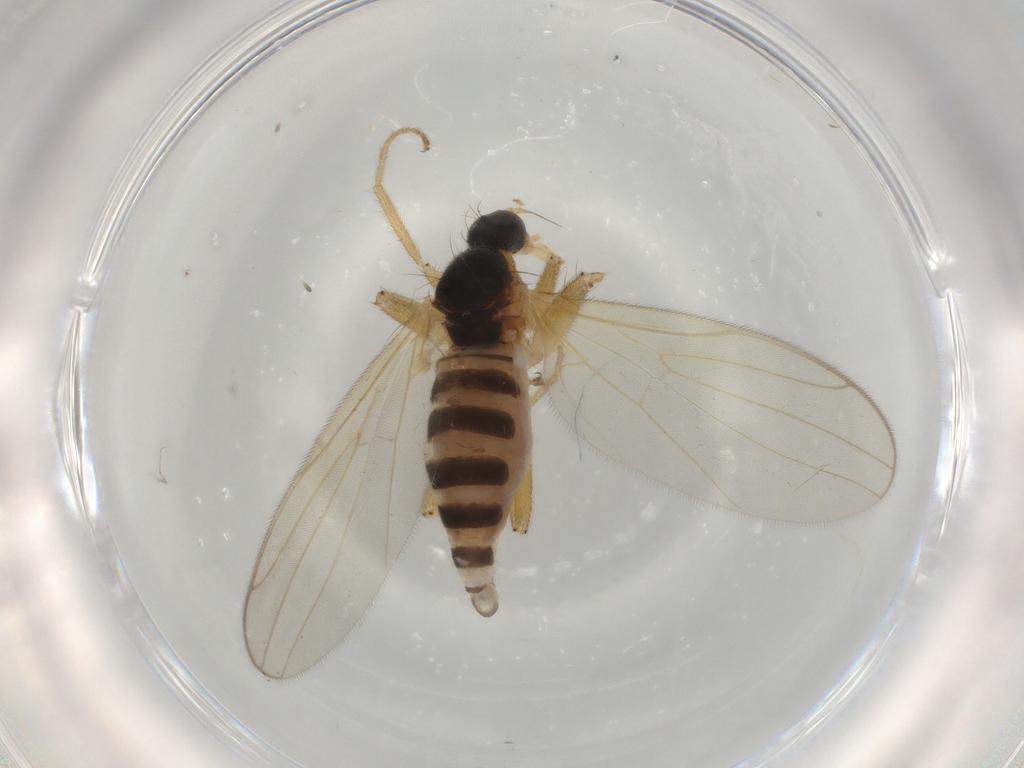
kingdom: Animalia
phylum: Arthropoda
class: Insecta
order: Diptera
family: Hybotidae
